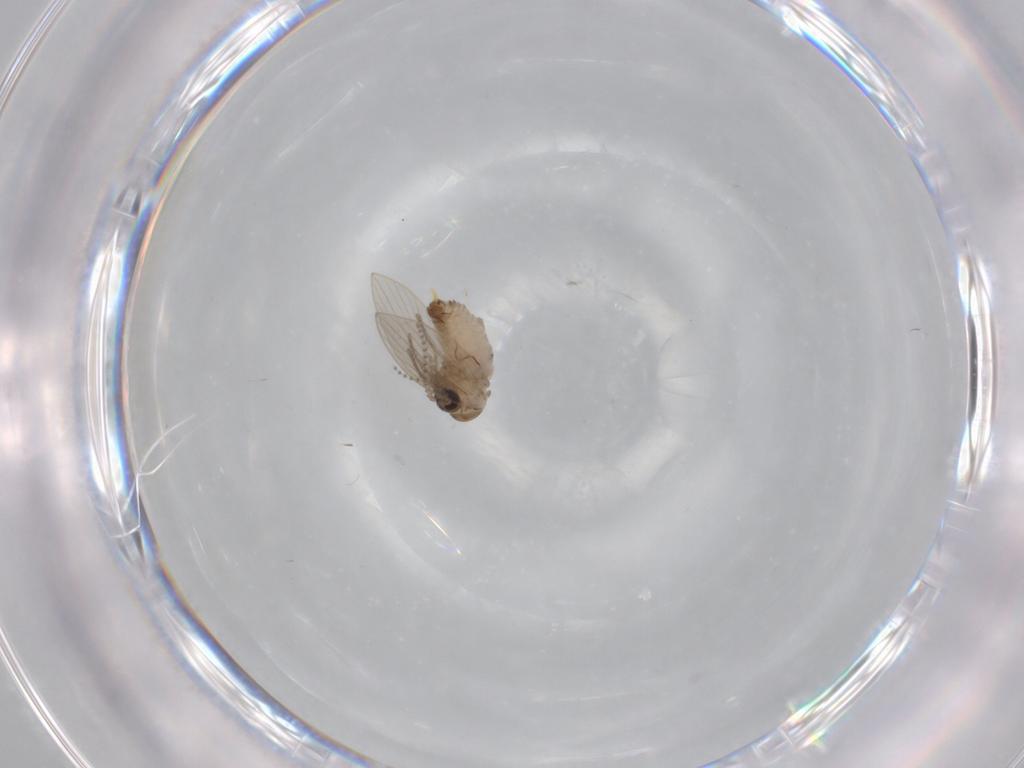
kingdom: Animalia
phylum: Arthropoda
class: Insecta
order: Diptera
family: Psychodidae
